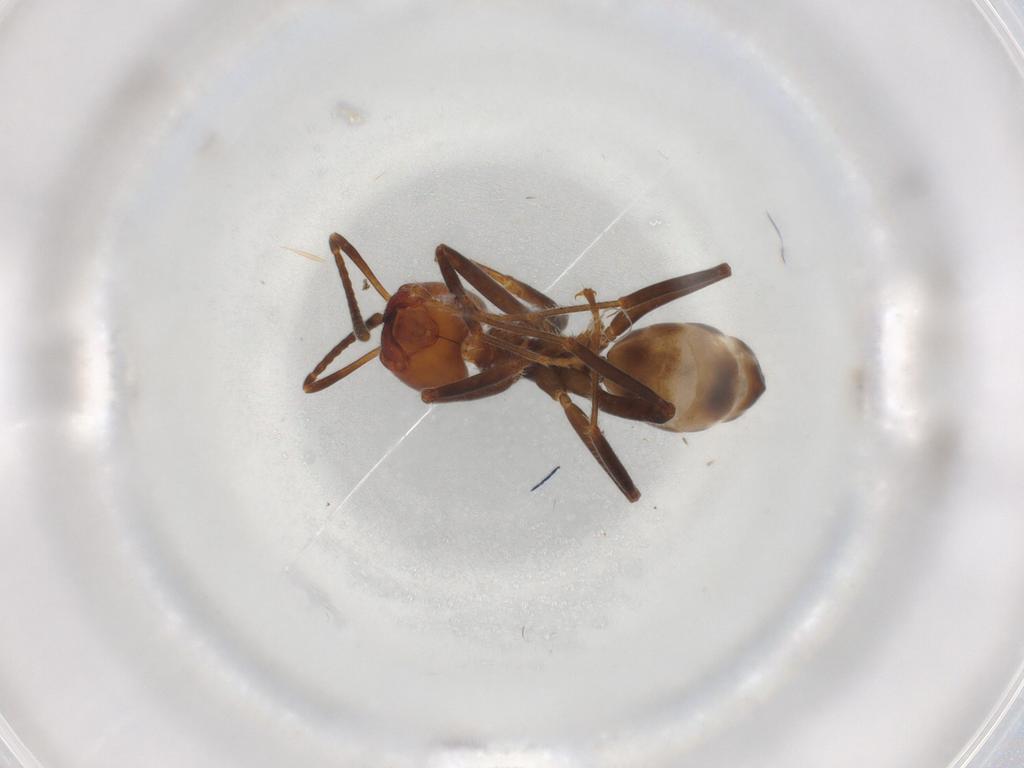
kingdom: Animalia
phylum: Arthropoda
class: Insecta
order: Hymenoptera
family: Formicidae
